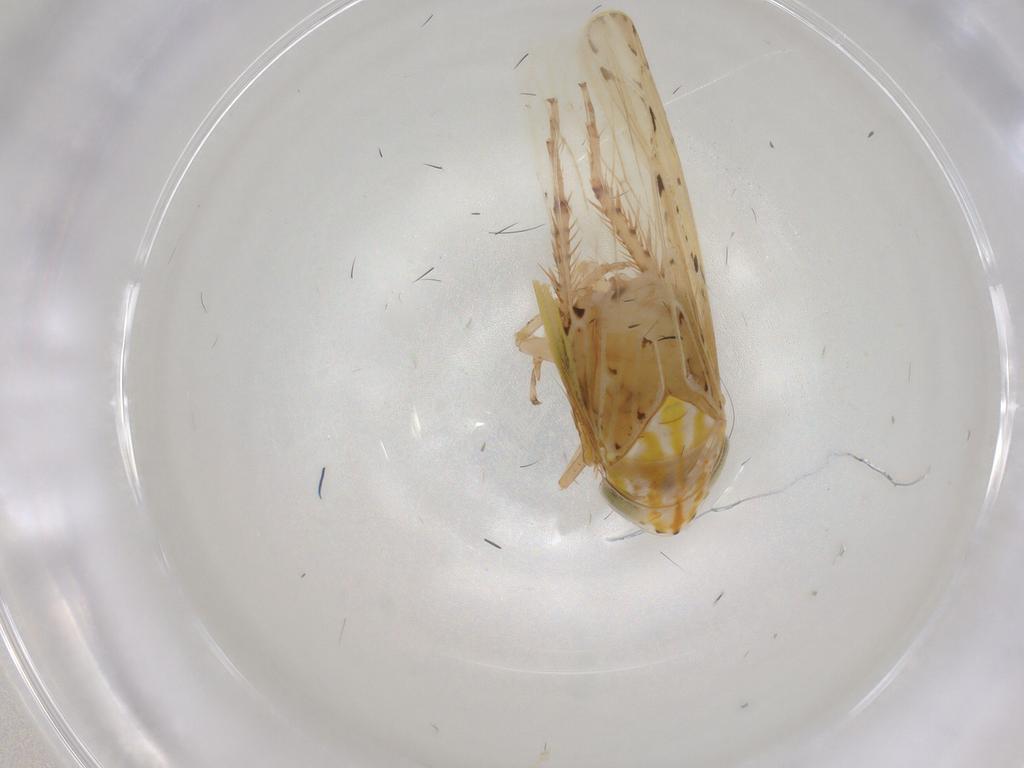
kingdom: Animalia
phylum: Arthropoda
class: Insecta
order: Hemiptera
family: Cicadellidae
